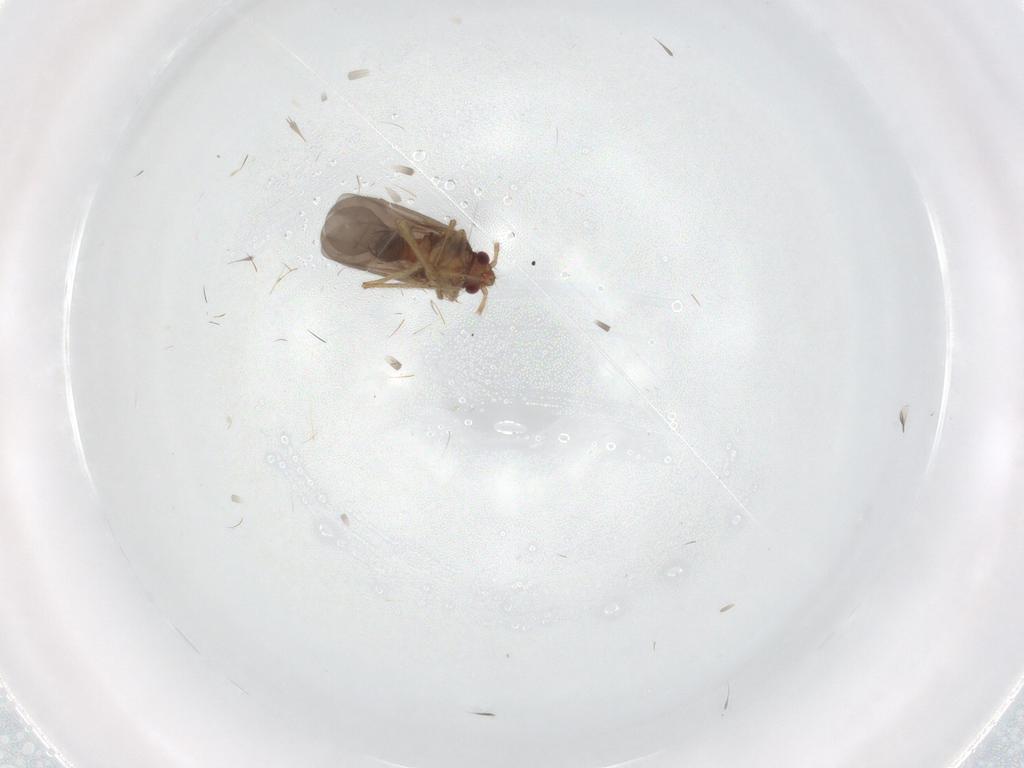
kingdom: Animalia
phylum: Arthropoda
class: Insecta
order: Hemiptera
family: Ceratocombidae
